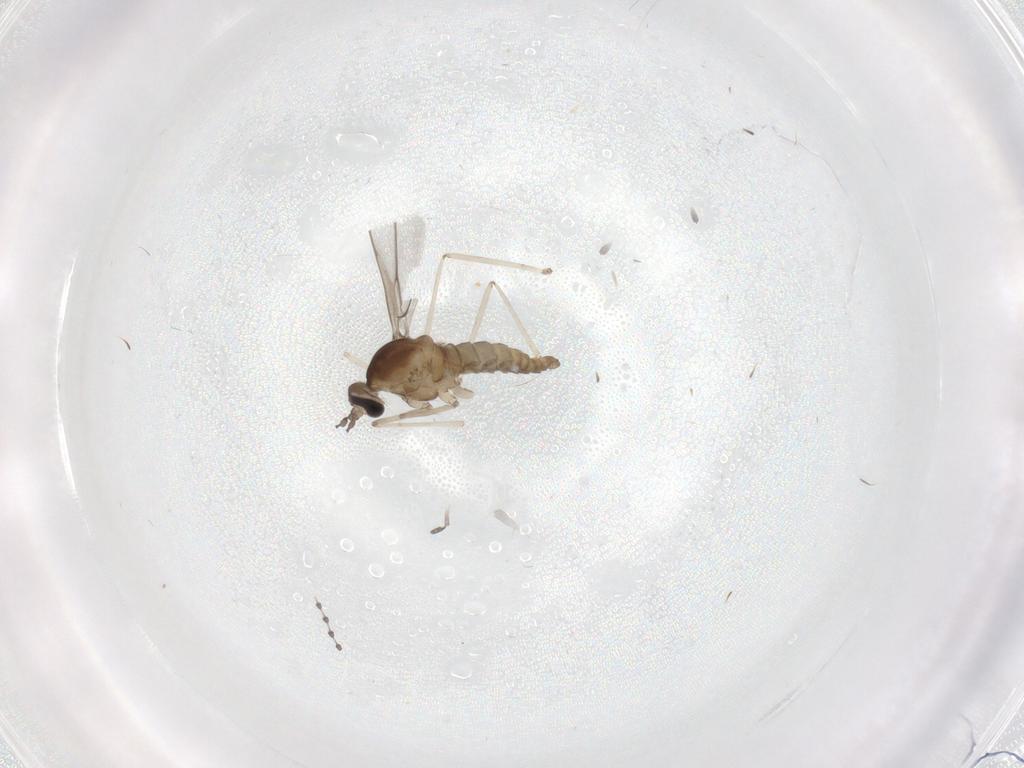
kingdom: Animalia
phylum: Arthropoda
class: Insecta
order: Diptera
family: Cecidomyiidae
